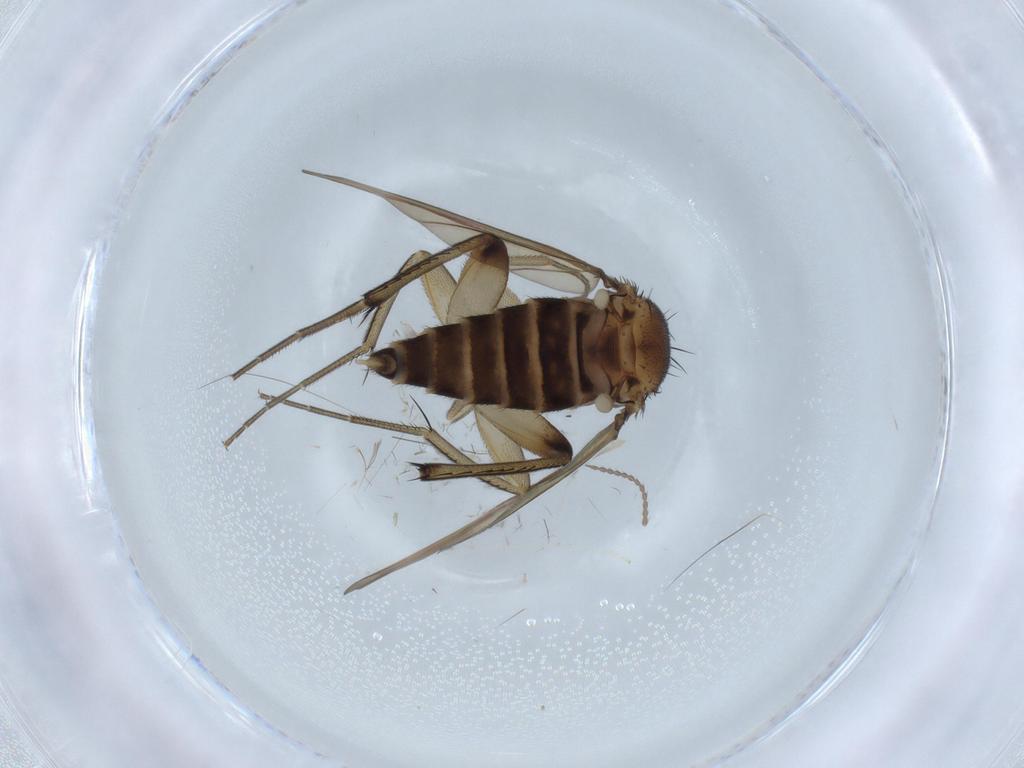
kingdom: Animalia
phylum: Arthropoda
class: Insecta
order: Diptera
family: Phoridae
